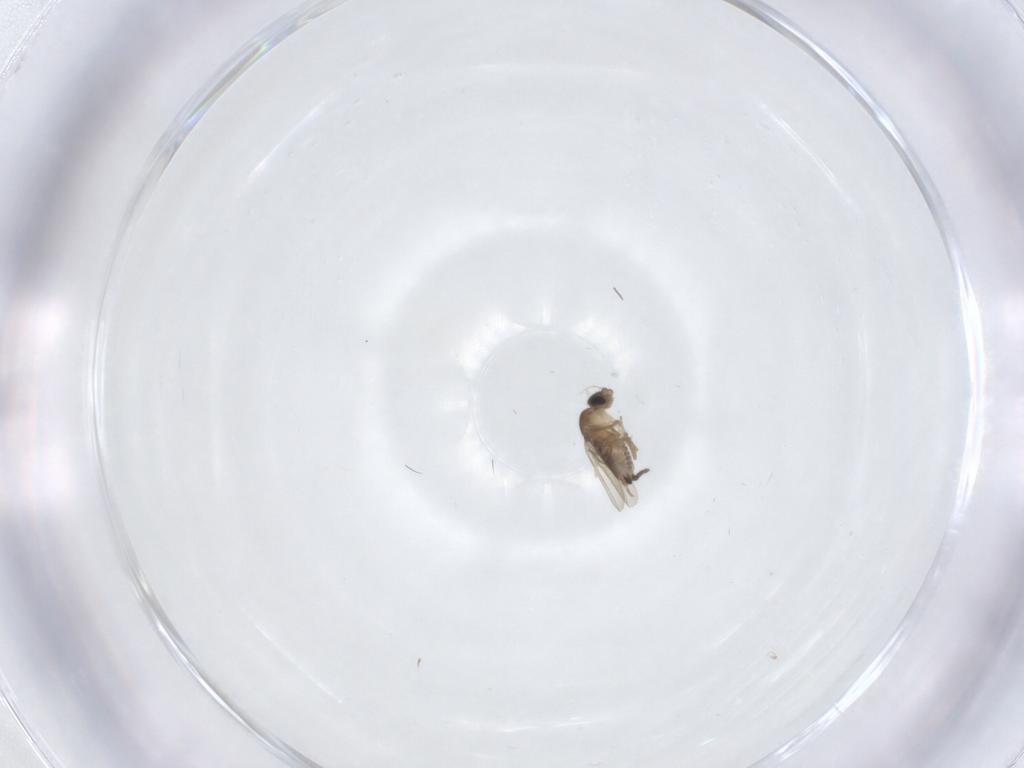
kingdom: Animalia
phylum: Arthropoda
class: Insecta
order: Diptera
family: Sciaridae
